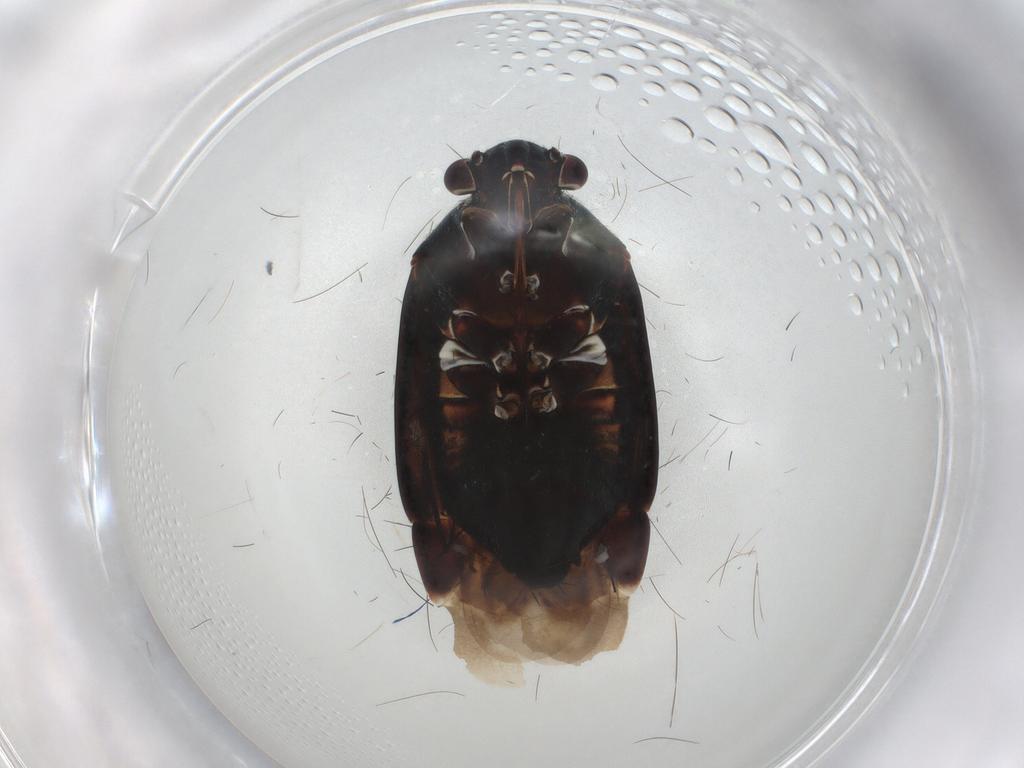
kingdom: Animalia
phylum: Arthropoda
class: Insecta
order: Hemiptera
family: Miridae
